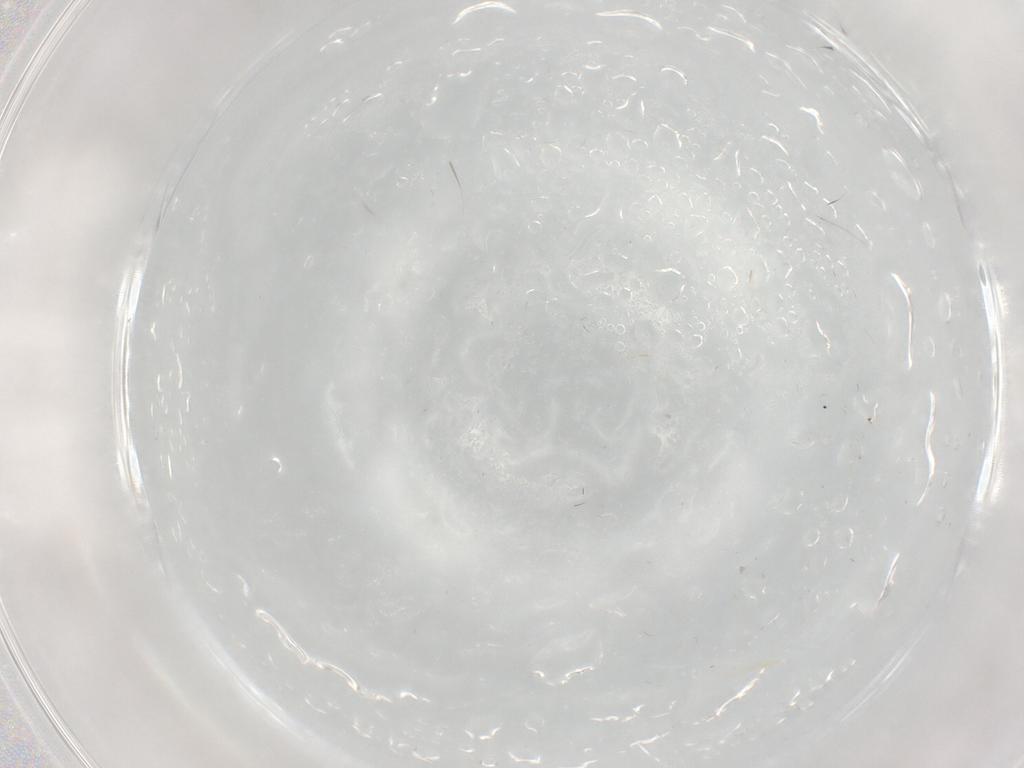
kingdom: Animalia
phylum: Arthropoda
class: Insecta
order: Diptera
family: Cecidomyiidae
